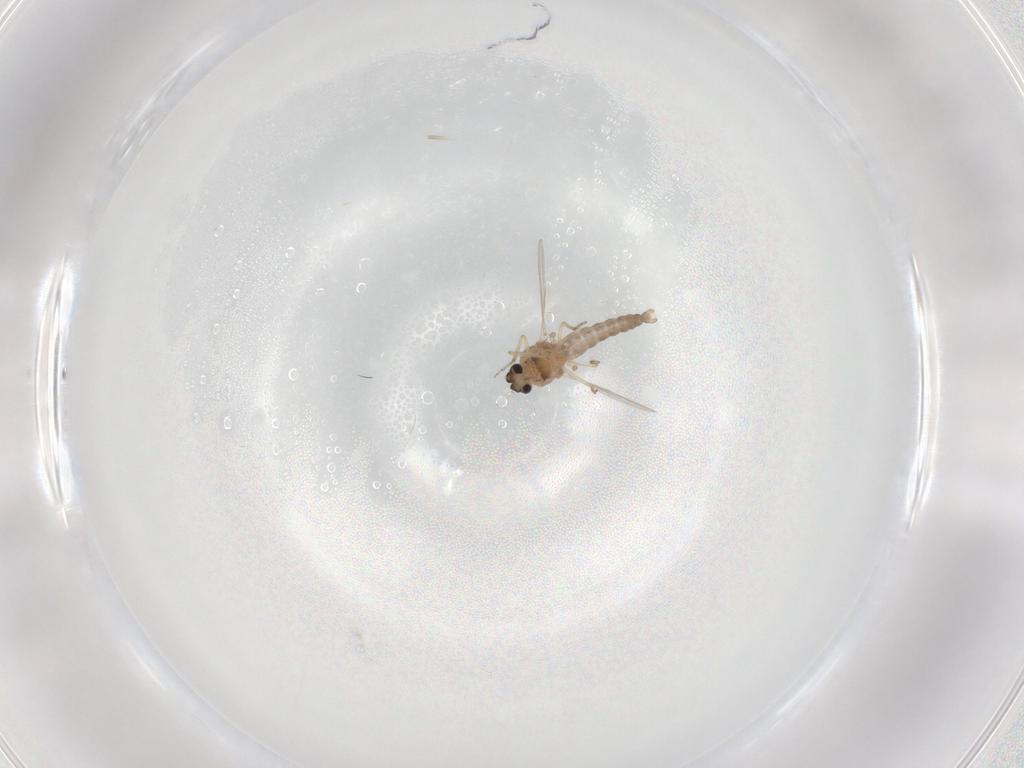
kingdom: Animalia
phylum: Arthropoda
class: Insecta
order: Diptera
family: Ceratopogonidae
